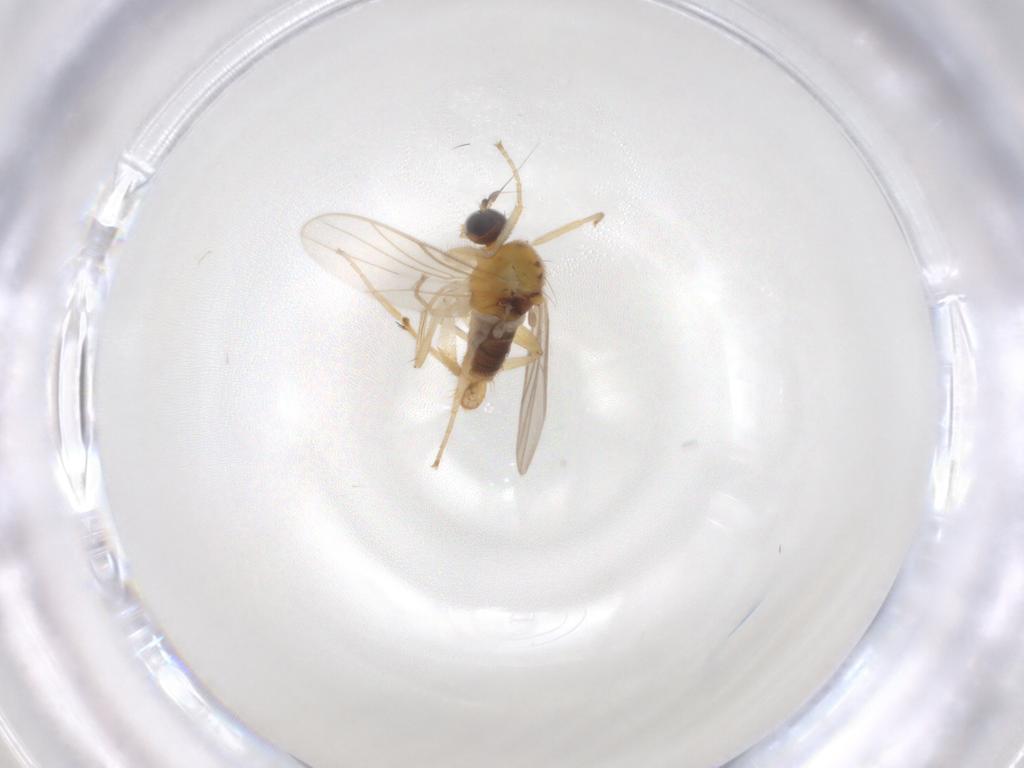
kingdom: Animalia
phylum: Arthropoda
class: Insecta
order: Diptera
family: Hybotidae
